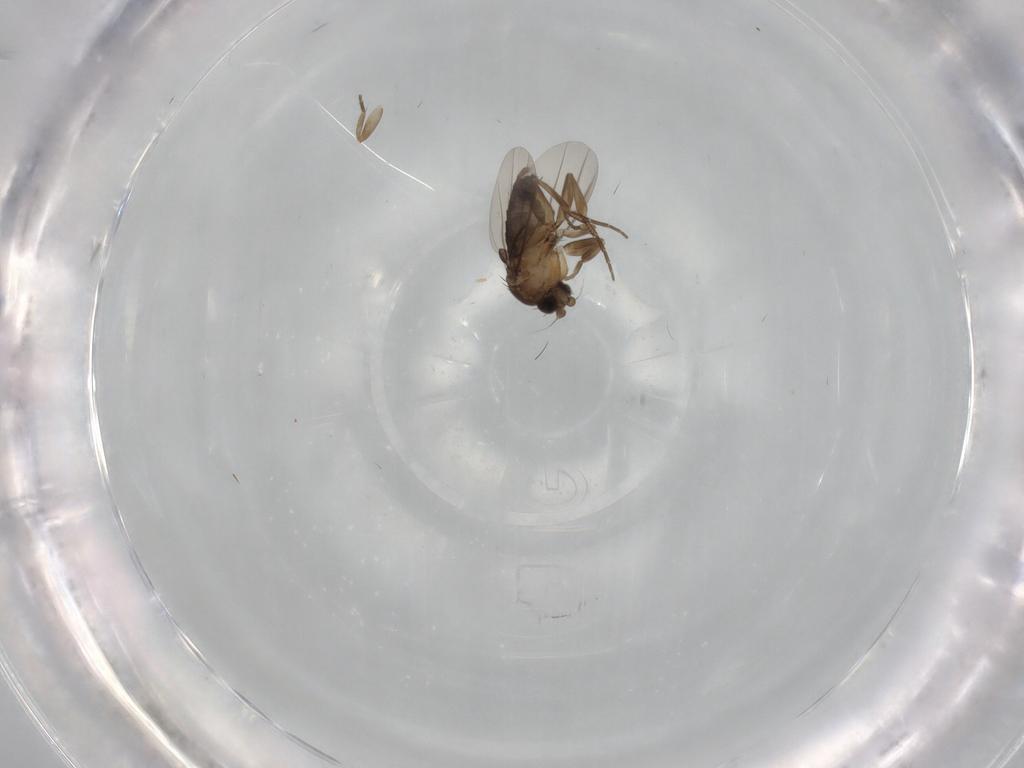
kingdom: Animalia
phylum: Arthropoda
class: Insecta
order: Diptera
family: Phoridae
